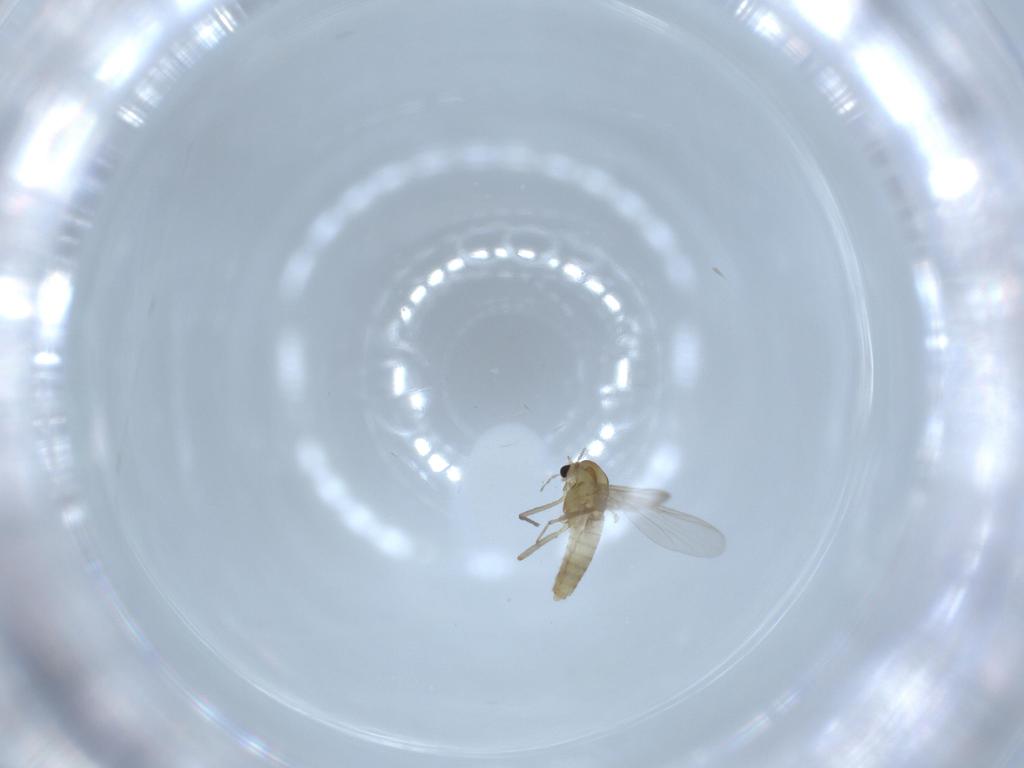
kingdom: Animalia
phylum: Arthropoda
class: Insecta
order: Diptera
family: Chironomidae
